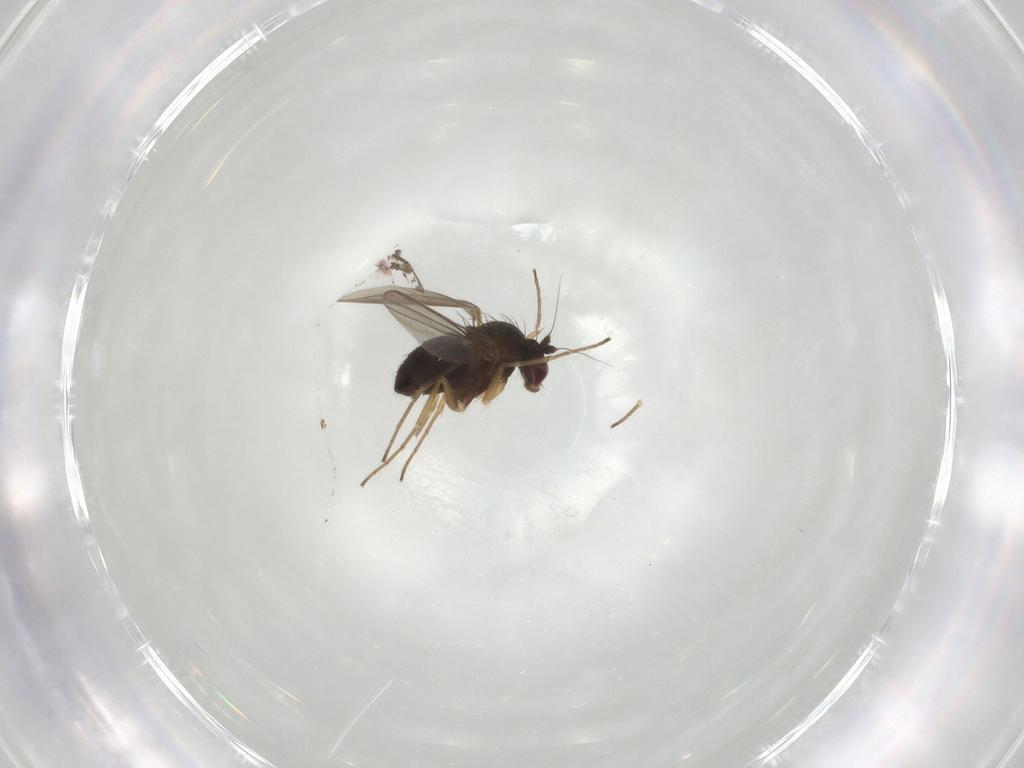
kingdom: Animalia
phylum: Arthropoda
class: Insecta
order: Diptera
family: Dolichopodidae
